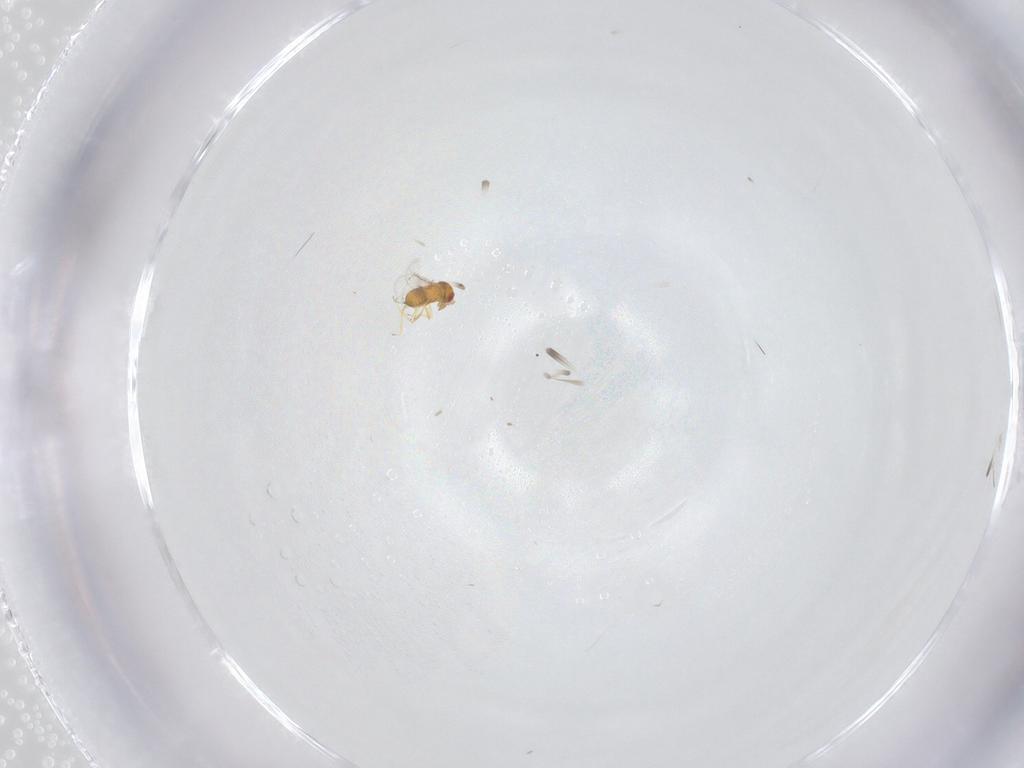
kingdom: Animalia
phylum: Arthropoda
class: Insecta
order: Hymenoptera
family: Trichogrammatidae
